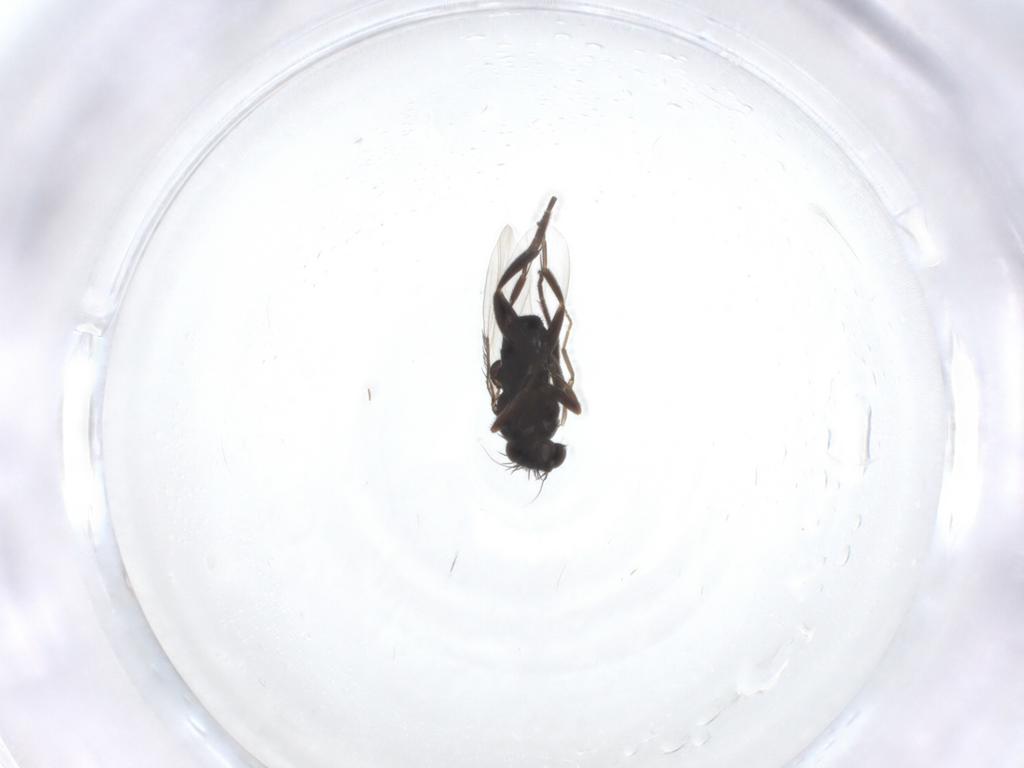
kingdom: Animalia
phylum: Arthropoda
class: Insecta
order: Diptera
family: Phoridae
